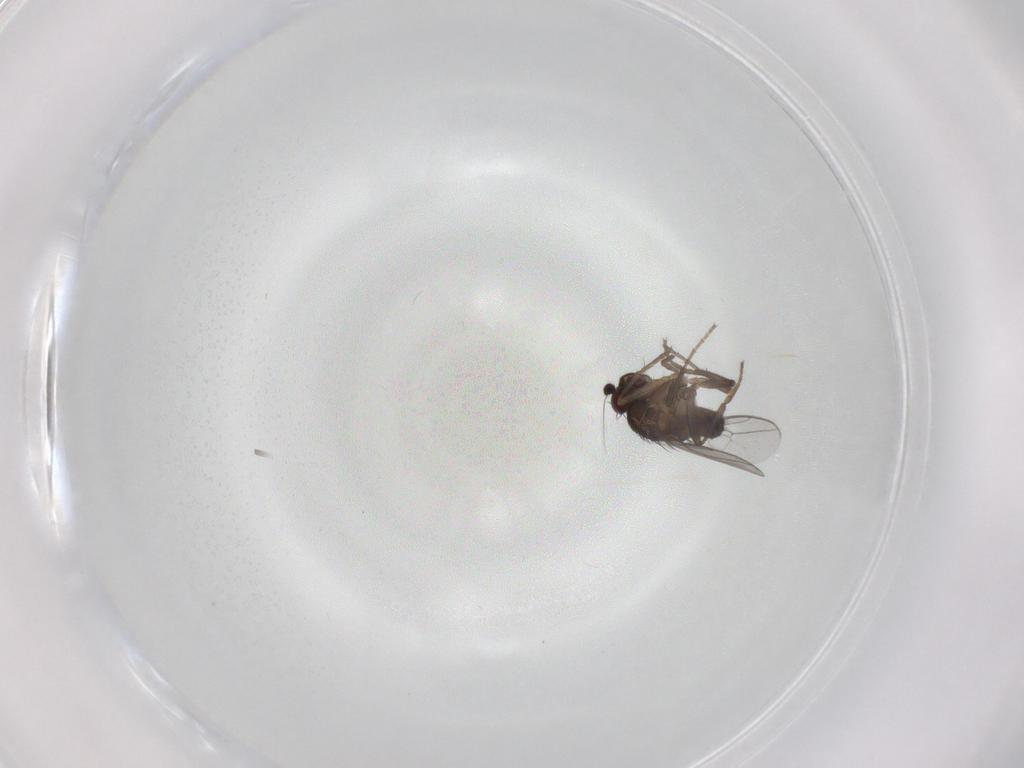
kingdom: Animalia
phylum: Arthropoda
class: Insecta
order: Diptera
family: Sphaeroceridae
